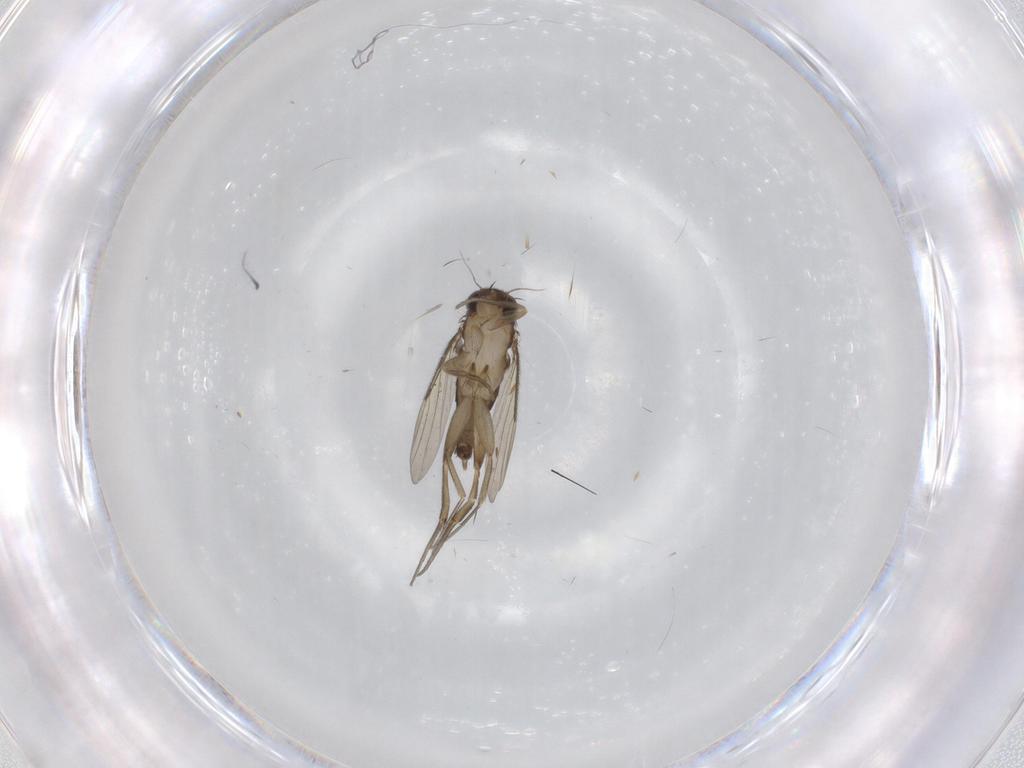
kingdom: Animalia
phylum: Arthropoda
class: Insecta
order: Diptera
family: Phoridae
